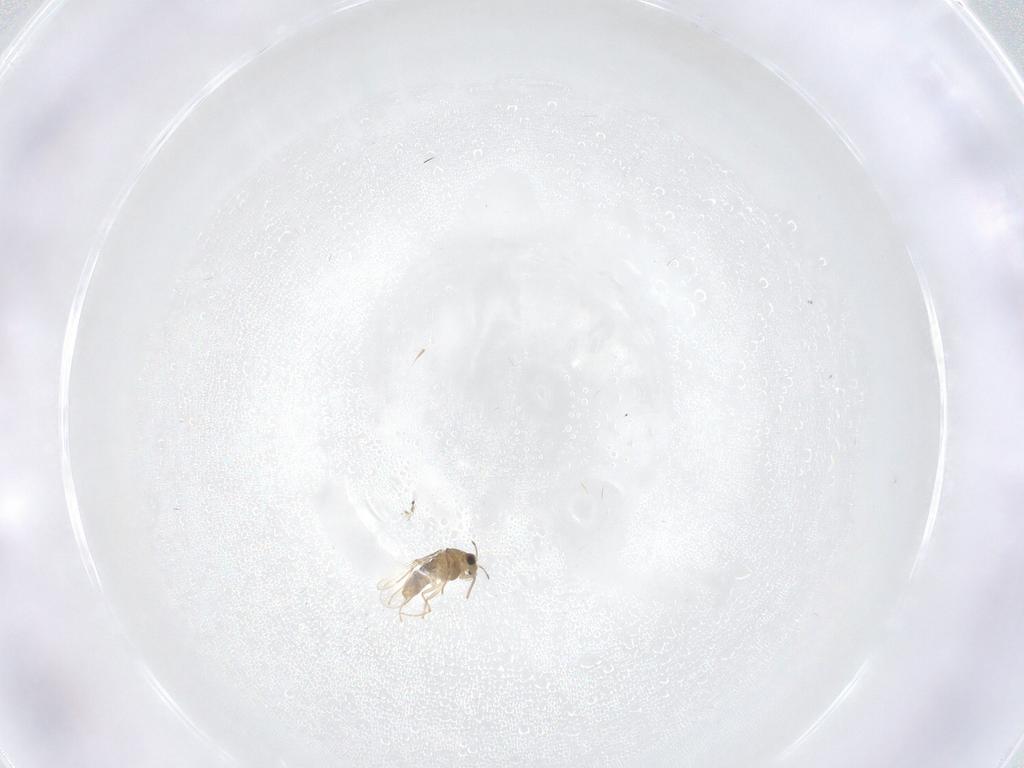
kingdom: Animalia
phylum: Arthropoda
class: Insecta
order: Diptera
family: Chironomidae
